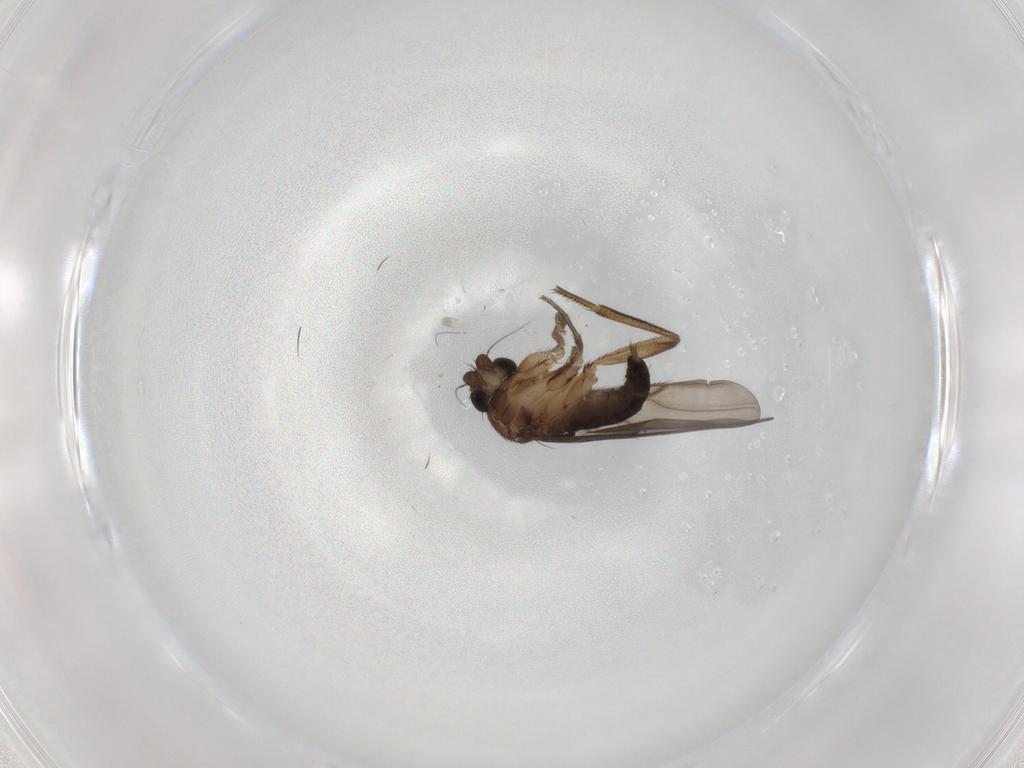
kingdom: Animalia
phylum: Arthropoda
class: Insecta
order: Diptera
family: Phoridae
